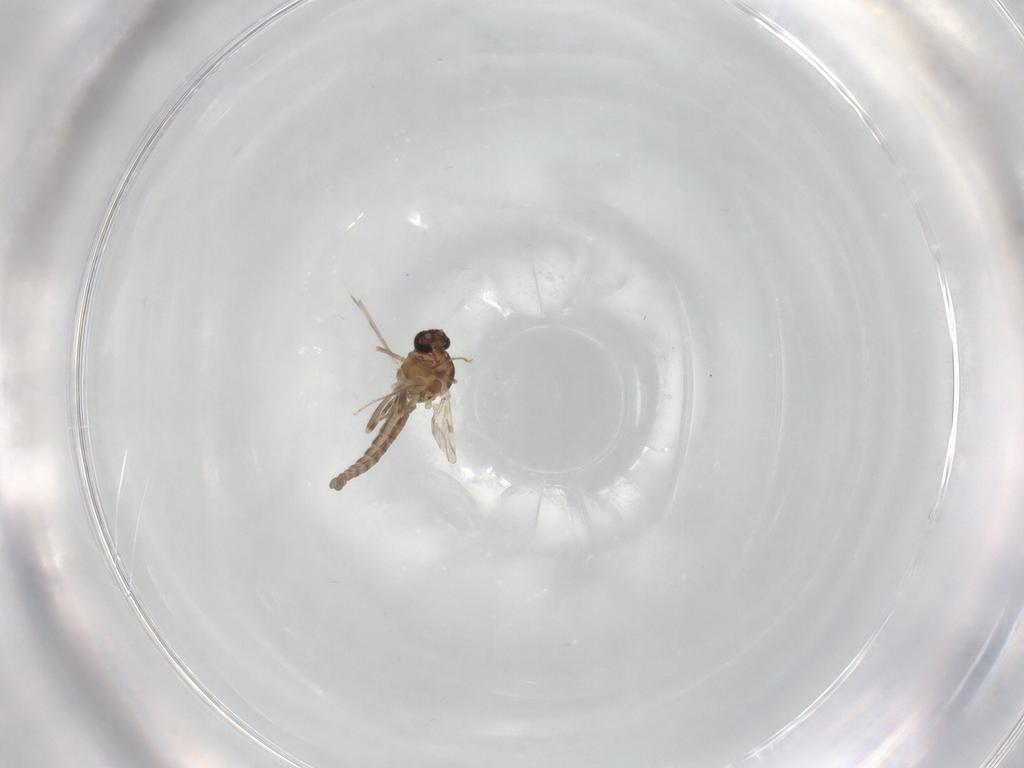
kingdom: Animalia
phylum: Arthropoda
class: Insecta
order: Diptera
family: Ceratopogonidae
